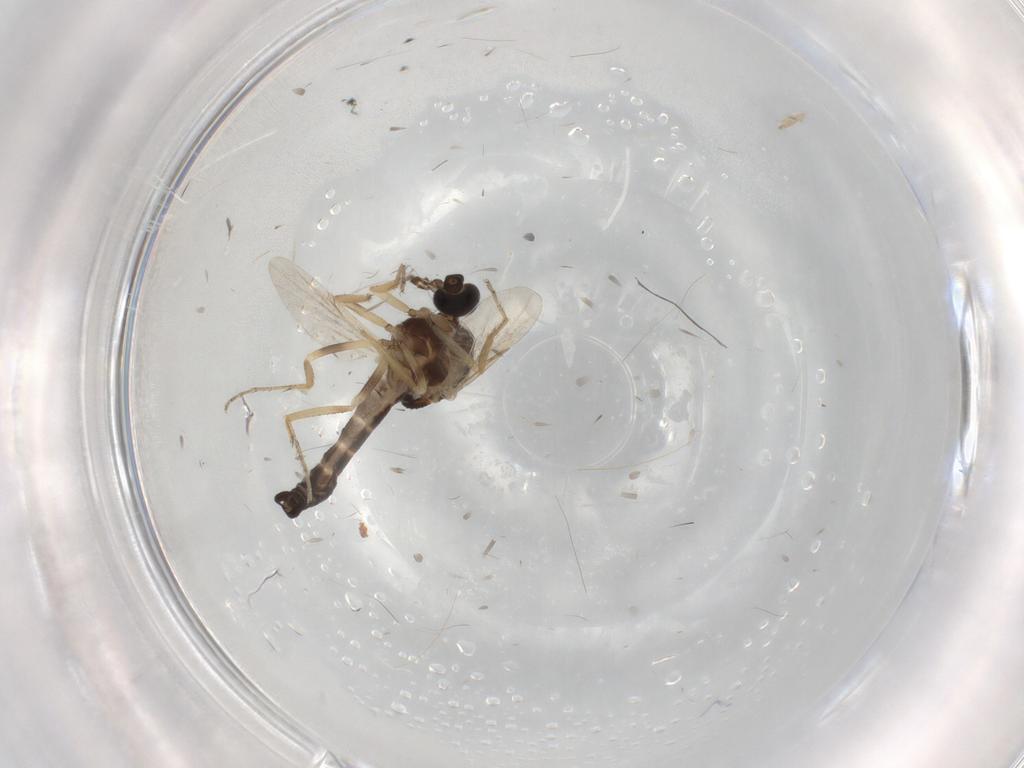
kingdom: Animalia
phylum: Arthropoda
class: Insecta
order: Diptera
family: Ceratopogonidae
